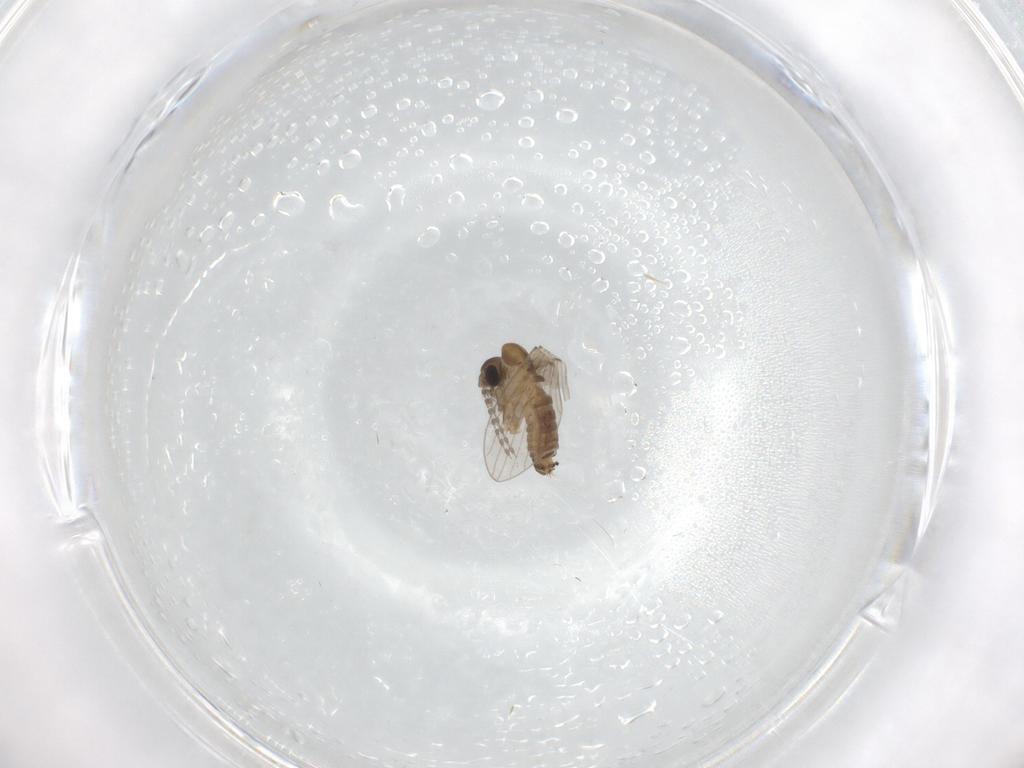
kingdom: Animalia
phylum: Arthropoda
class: Insecta
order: Diptera
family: Psychodidae
